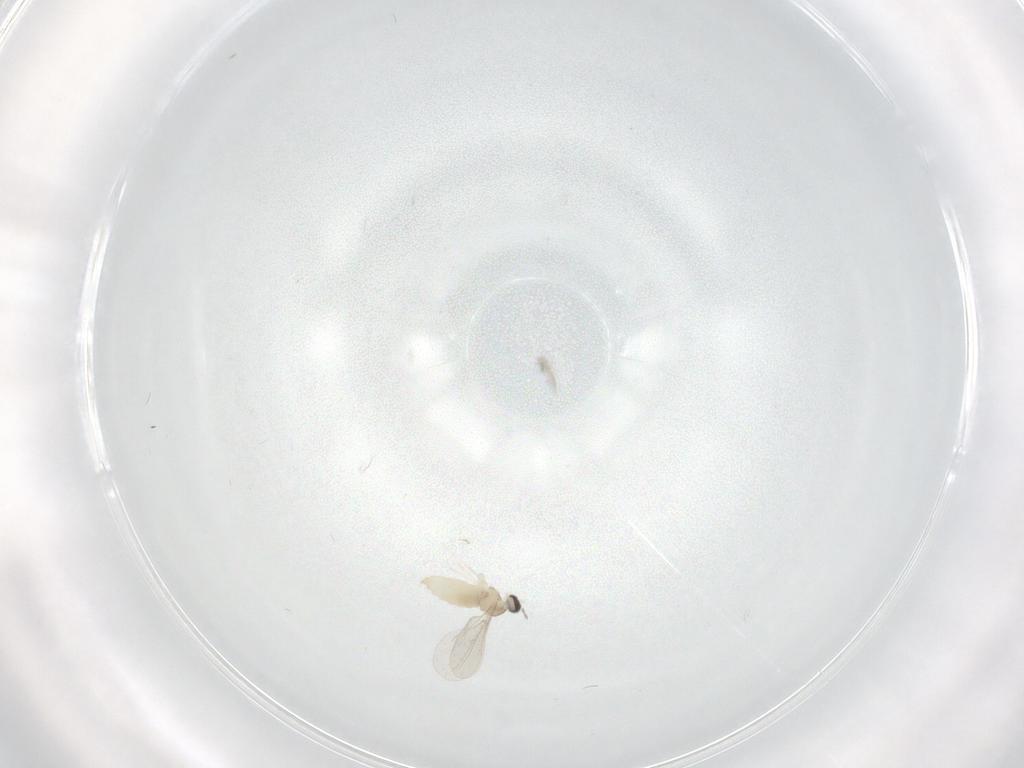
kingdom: Animalia
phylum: Arthropoda
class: Insecta
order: Diptera
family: Cecidomyiidae
